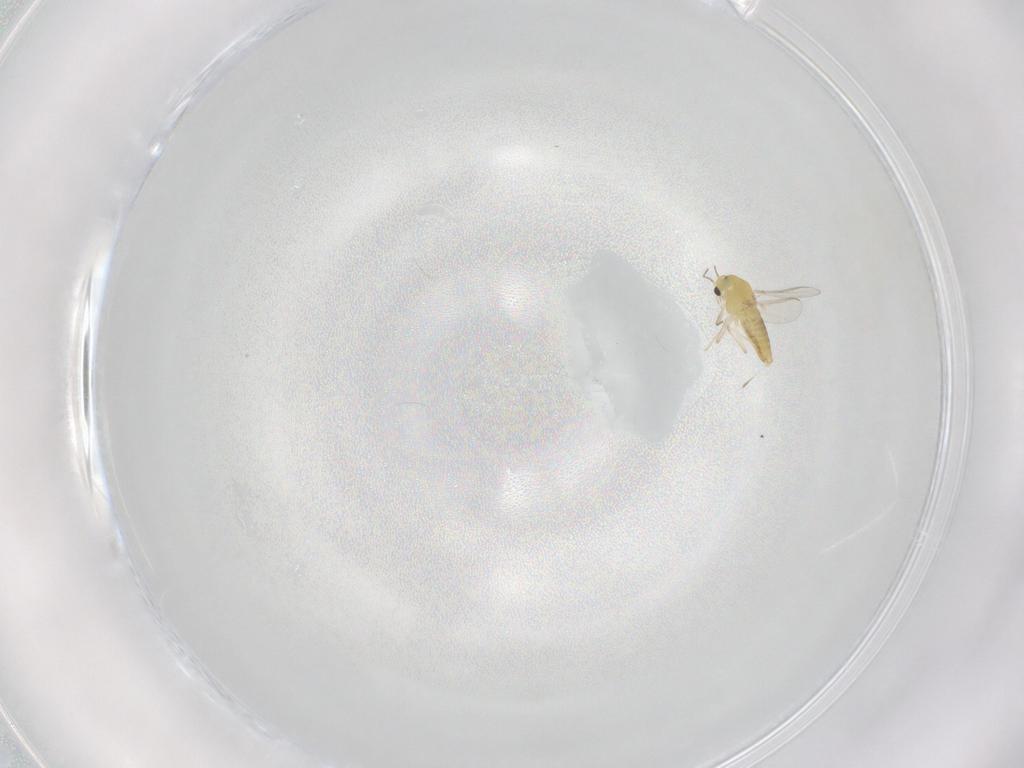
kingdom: Animalia
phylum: Arthropoda
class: Insecta
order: Diptera
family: Chironomidae
